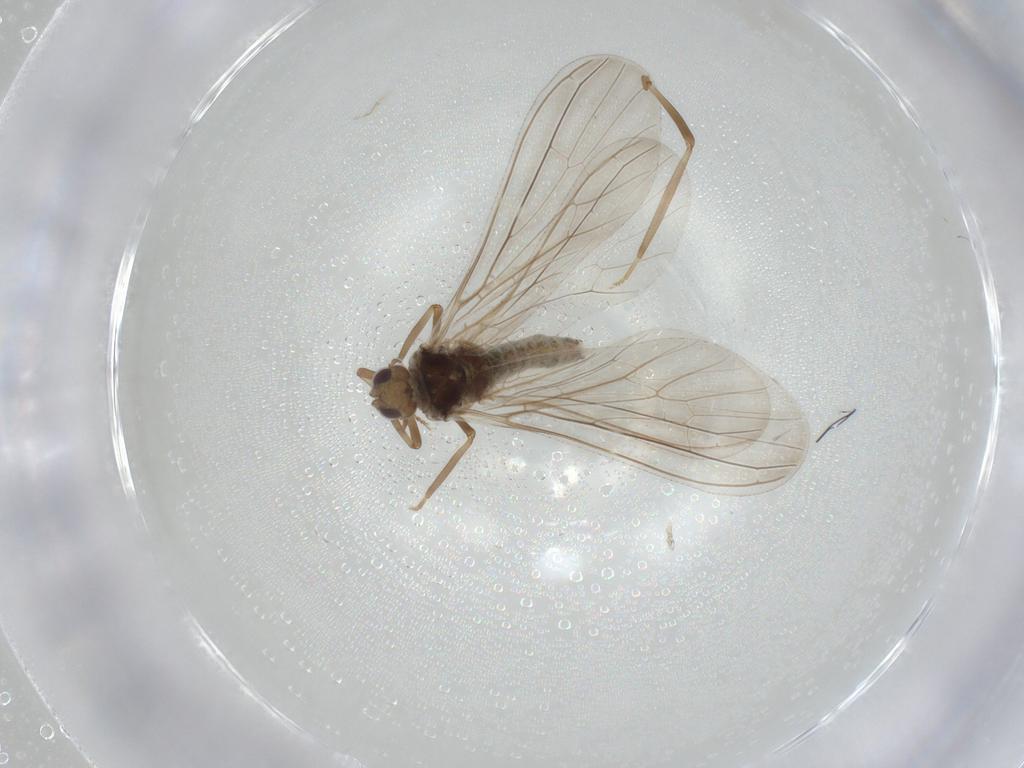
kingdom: Animalia
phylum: Arthropoda
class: Insecta
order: Neuroptera
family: Coniopterygidae
